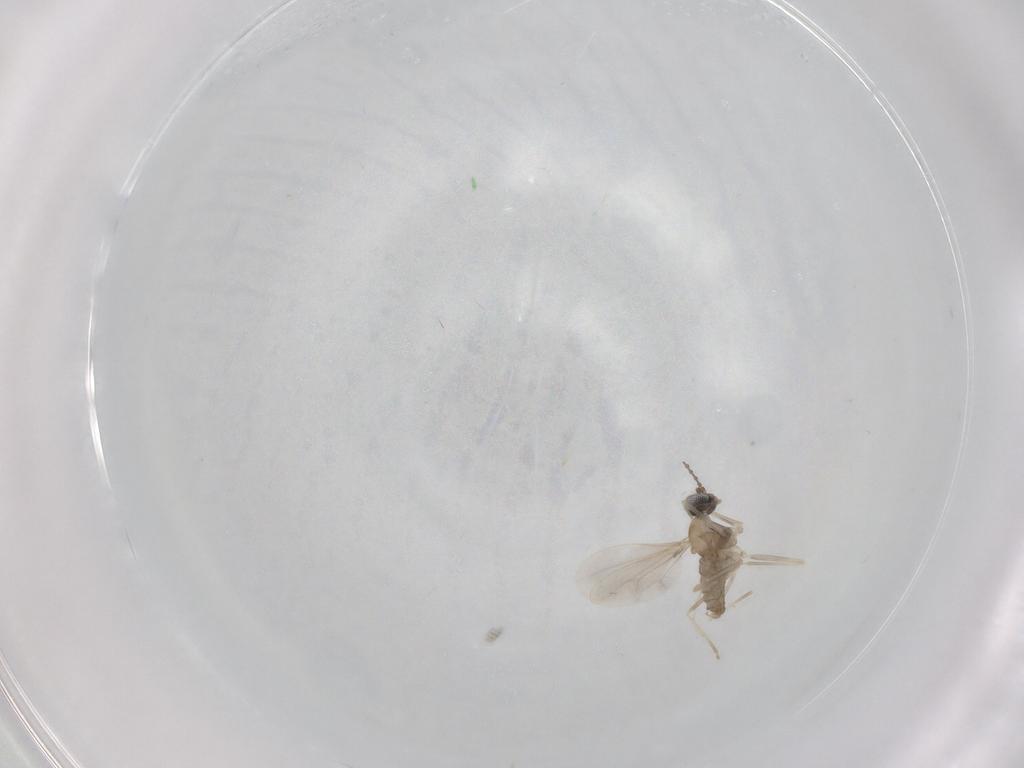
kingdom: Animalia
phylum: Arthropoda
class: Insecta
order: Diptera
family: Cecidomyiidae
